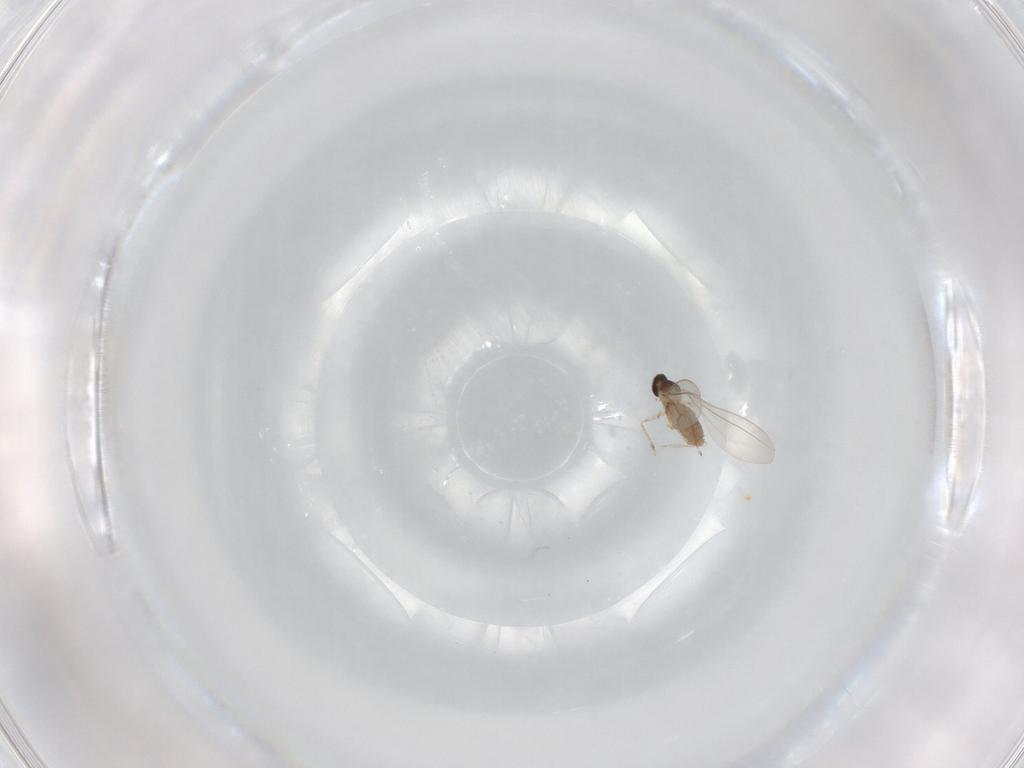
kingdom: Animalia
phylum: Arthropoda
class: Insecta
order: Diptera
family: Cecidomyiidae
